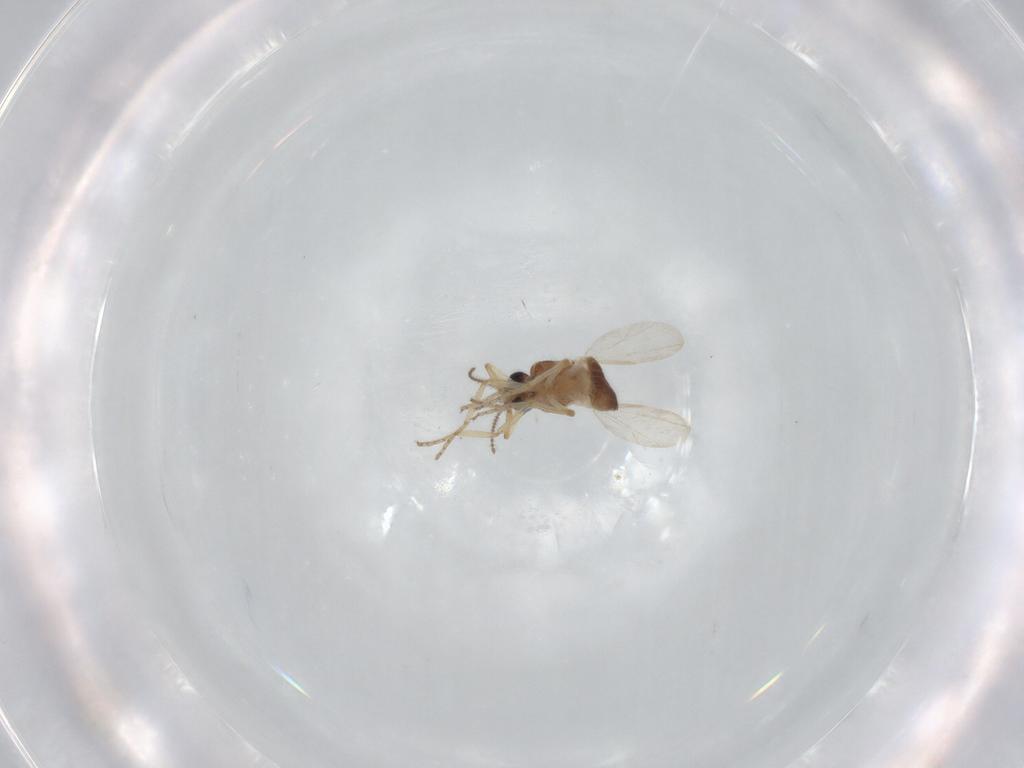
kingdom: Animalia
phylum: Arthropoda
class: Insecta
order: Diptera
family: Ceratopogonidae
